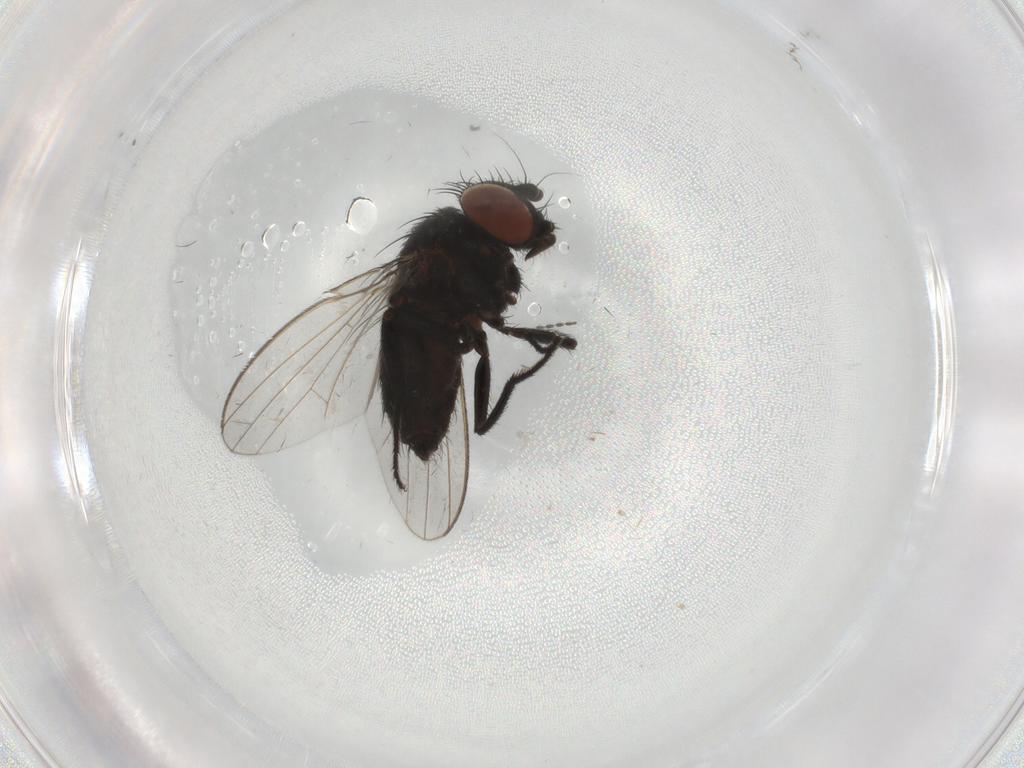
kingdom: Animalia
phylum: Arthropoda
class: Insecta
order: Diptera
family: Milichiidae
